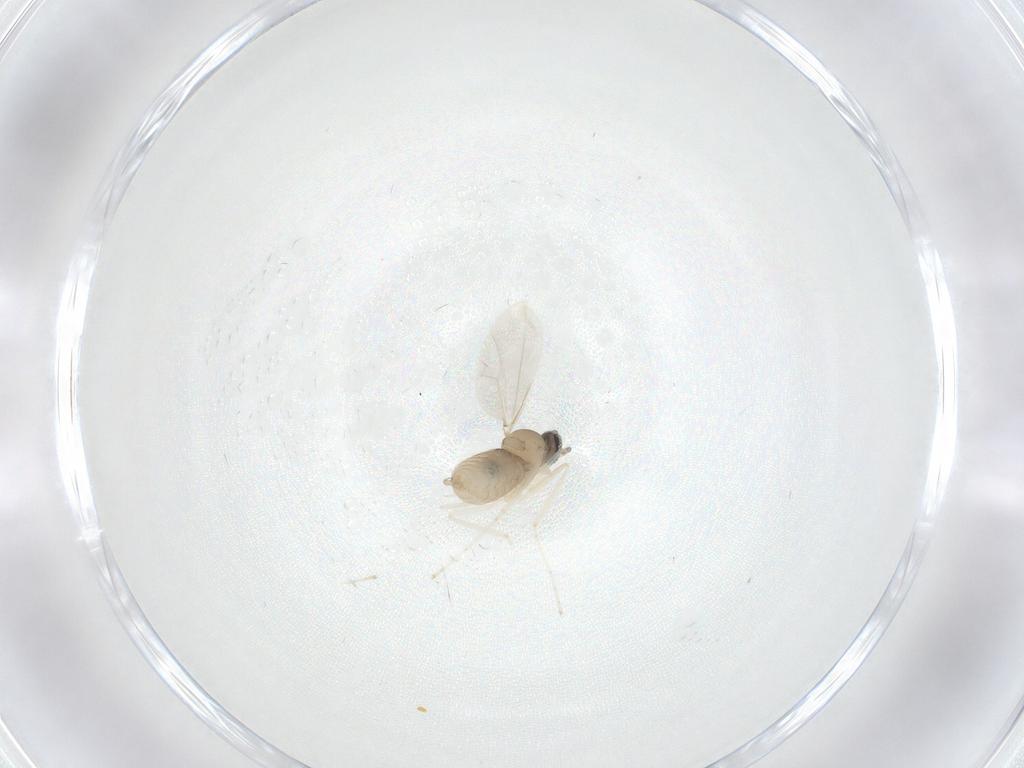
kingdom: Animalia
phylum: Arthropoda
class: Insecta
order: Diptera
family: Cecidomyiidae
